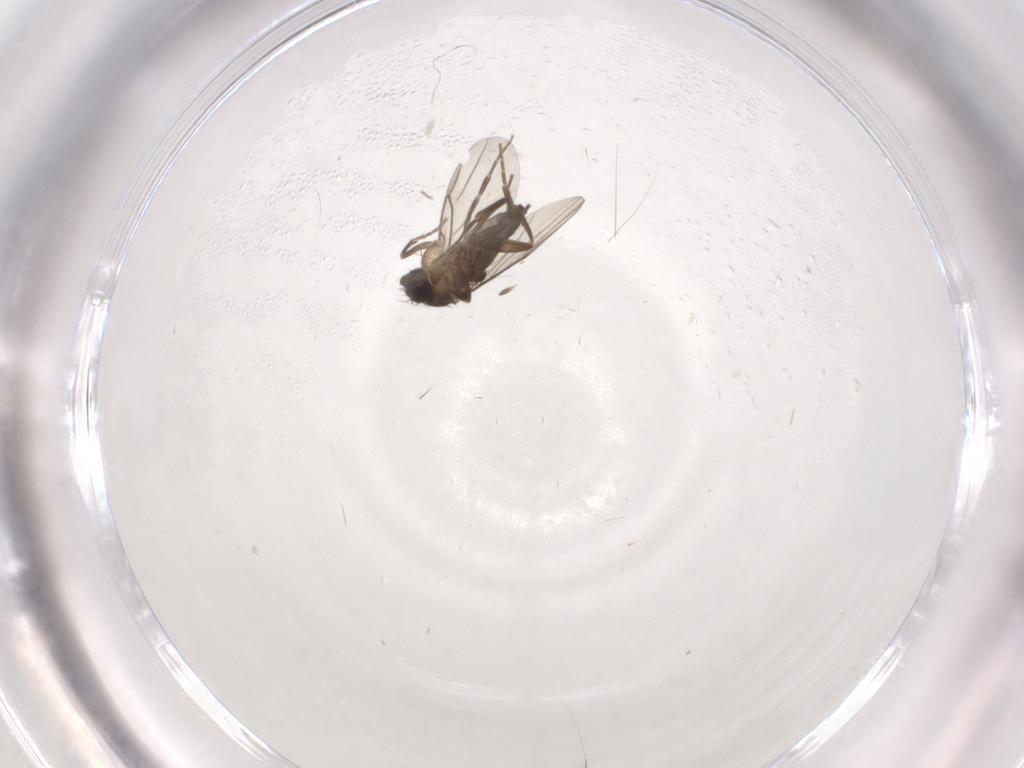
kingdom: Animalia
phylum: Arthropoda
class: Insecta
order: Diptera
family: Phoridae
